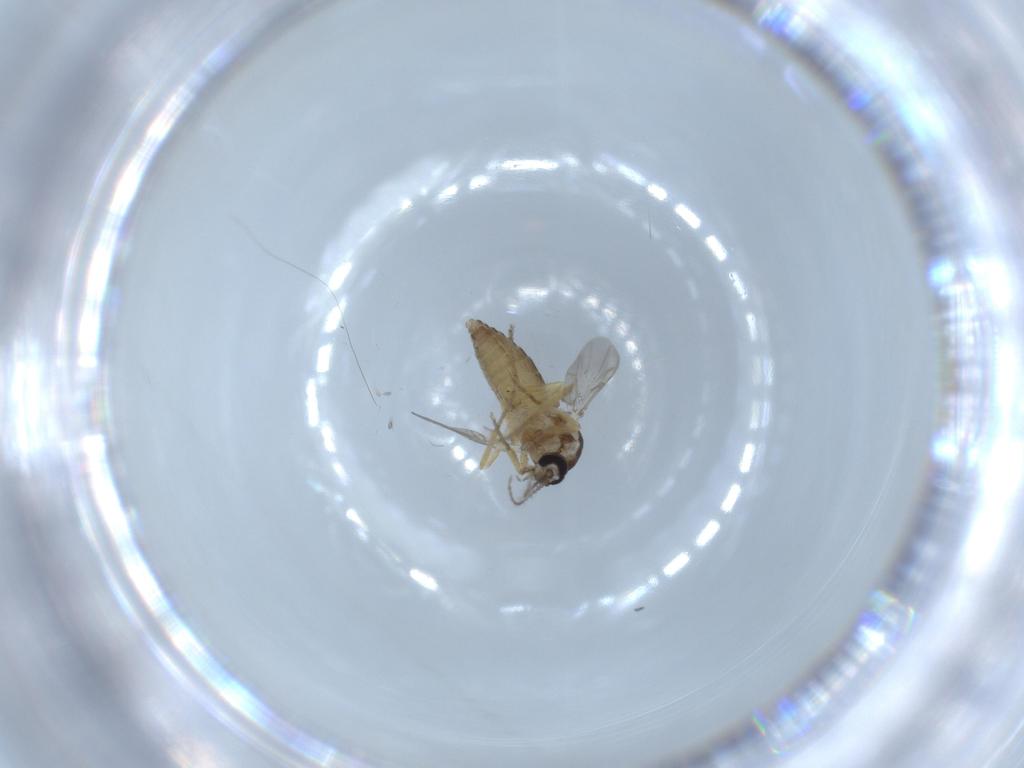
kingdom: Animalia
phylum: Arthropoda
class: Insecta
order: Diptera
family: Ceratopogonidae
